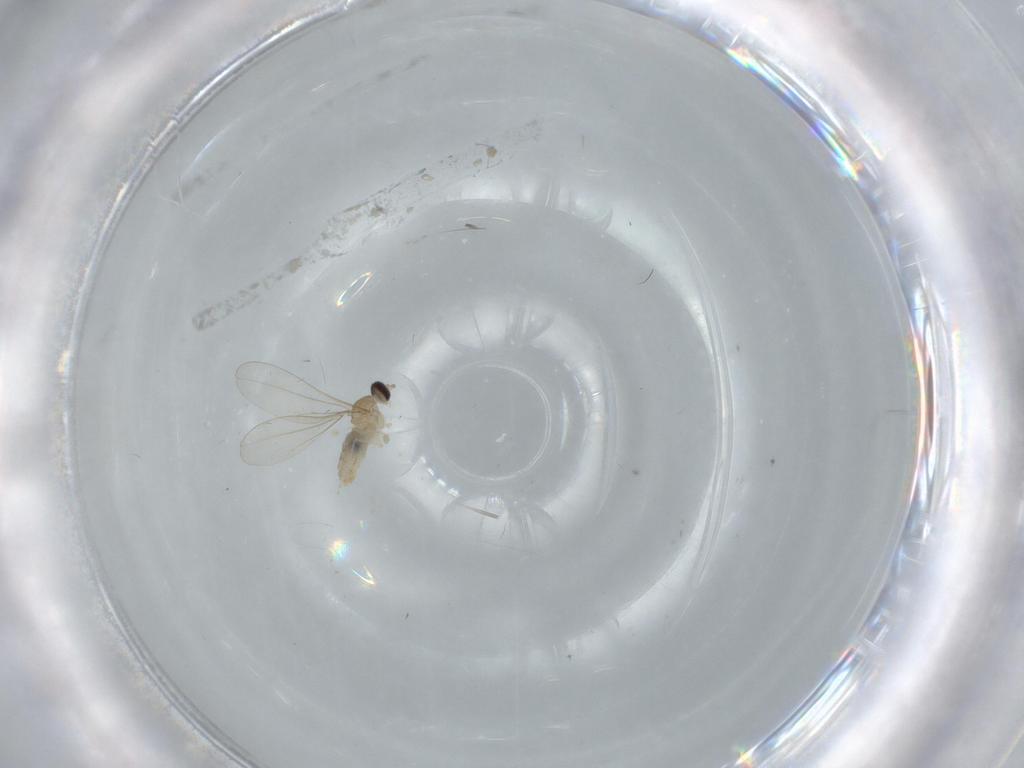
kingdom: Animalia
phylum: Arthropoda
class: Insecta
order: Diptera
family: Cecidomyiidae
